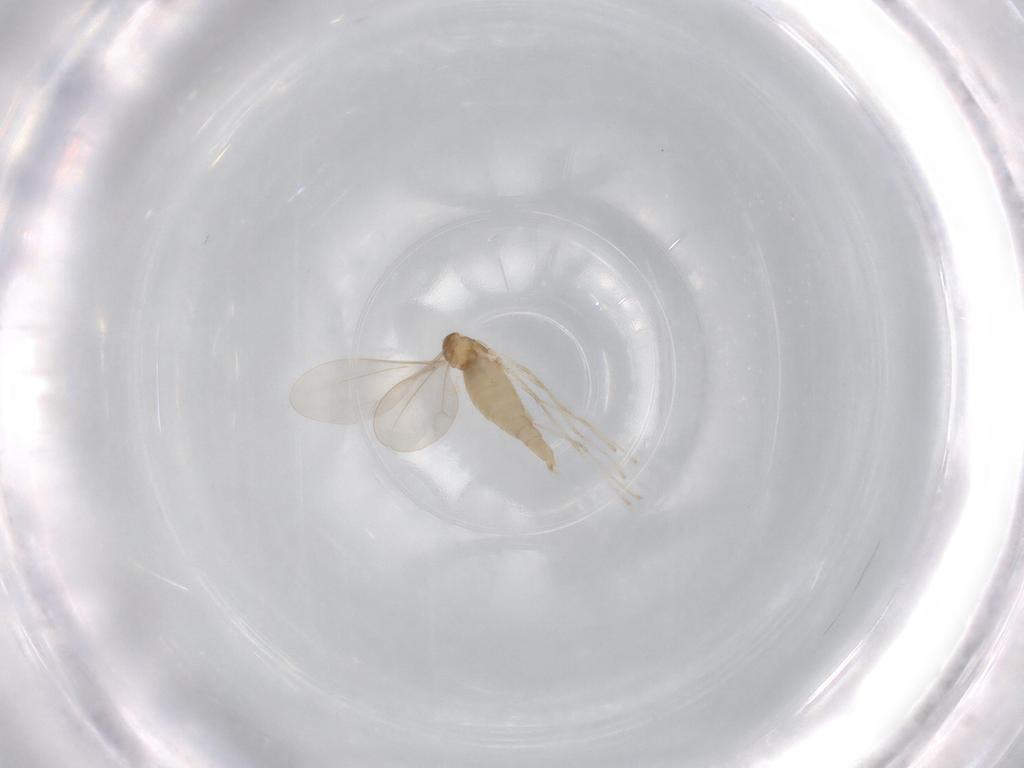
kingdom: Animalia
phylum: Arthropoda
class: Insecta
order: Diptera
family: Cecidomyiidae
